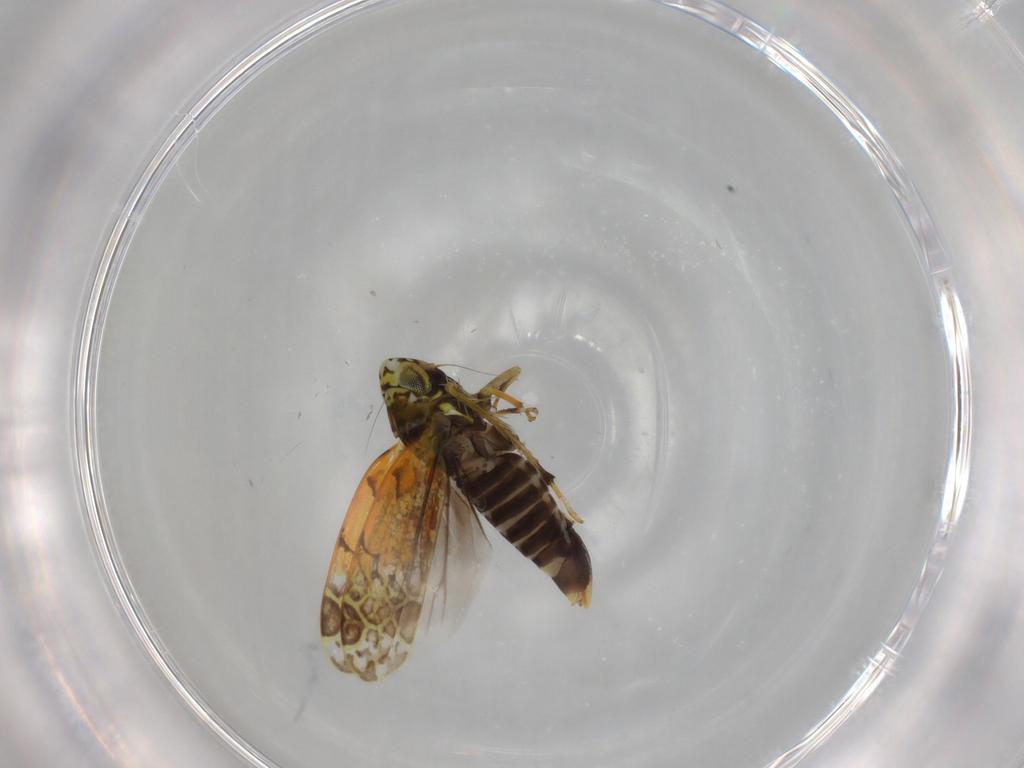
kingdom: Animalia
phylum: Arthropoda
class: Insecta
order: Hemiptera
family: Cicadellidae
